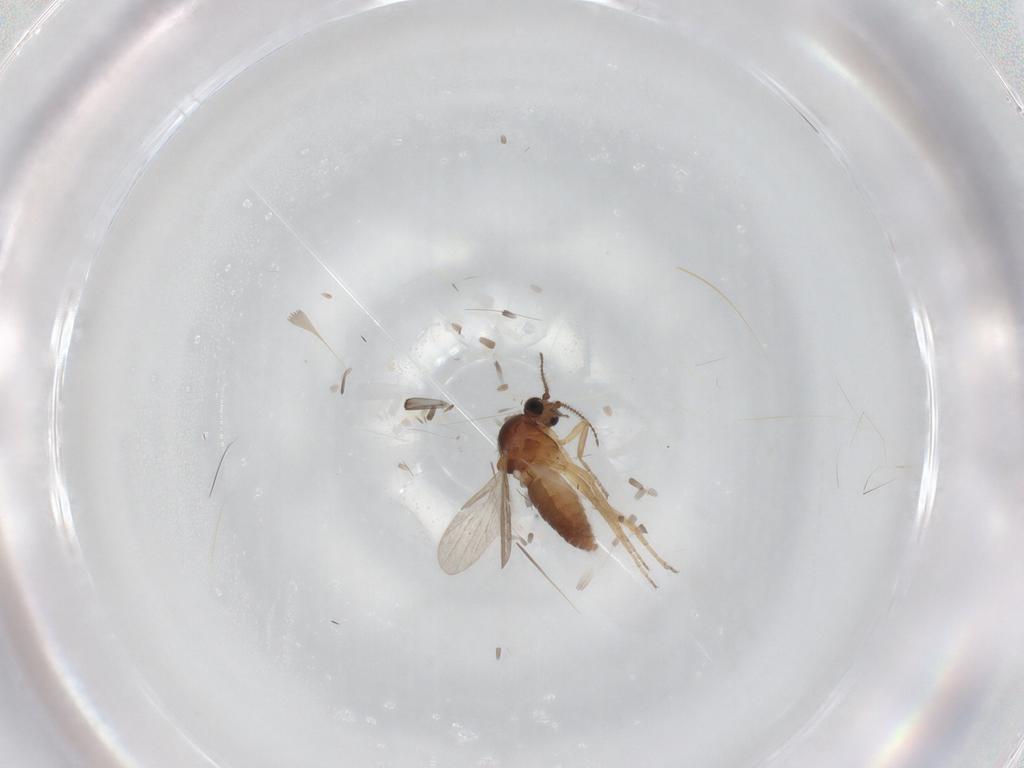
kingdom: Animalia
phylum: Arthropoda
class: Insecta
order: Diptera
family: Ceratopogonidae
